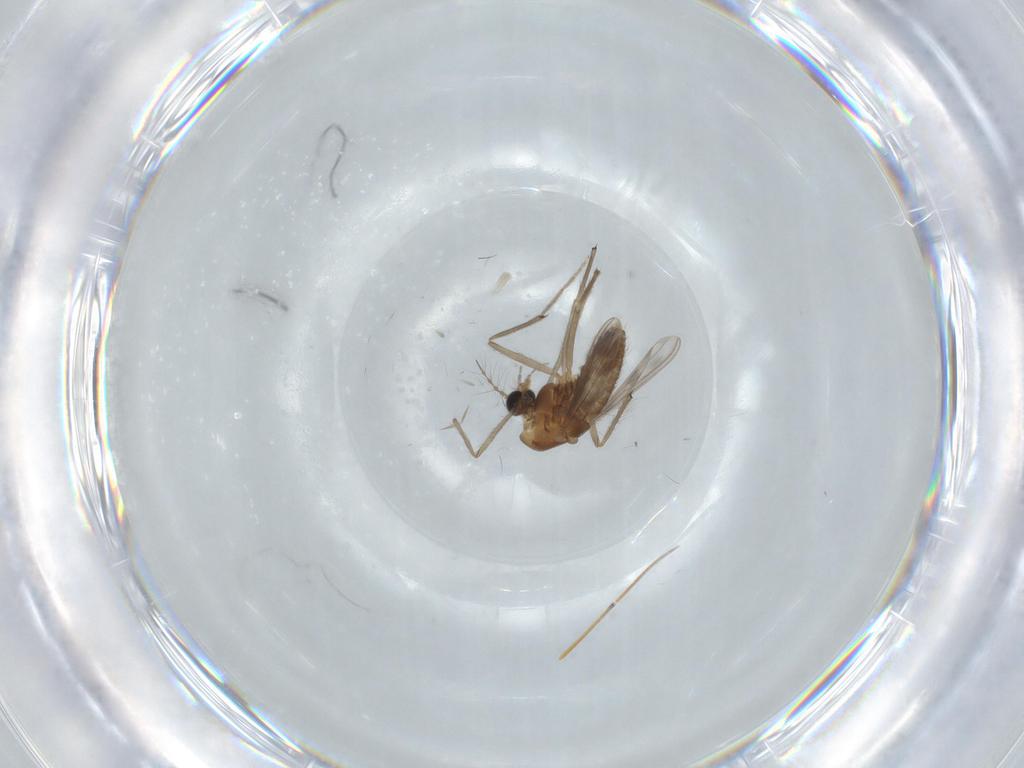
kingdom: Animalia
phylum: Arthropoda
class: Insecta
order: Diptera
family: Chironomidae
